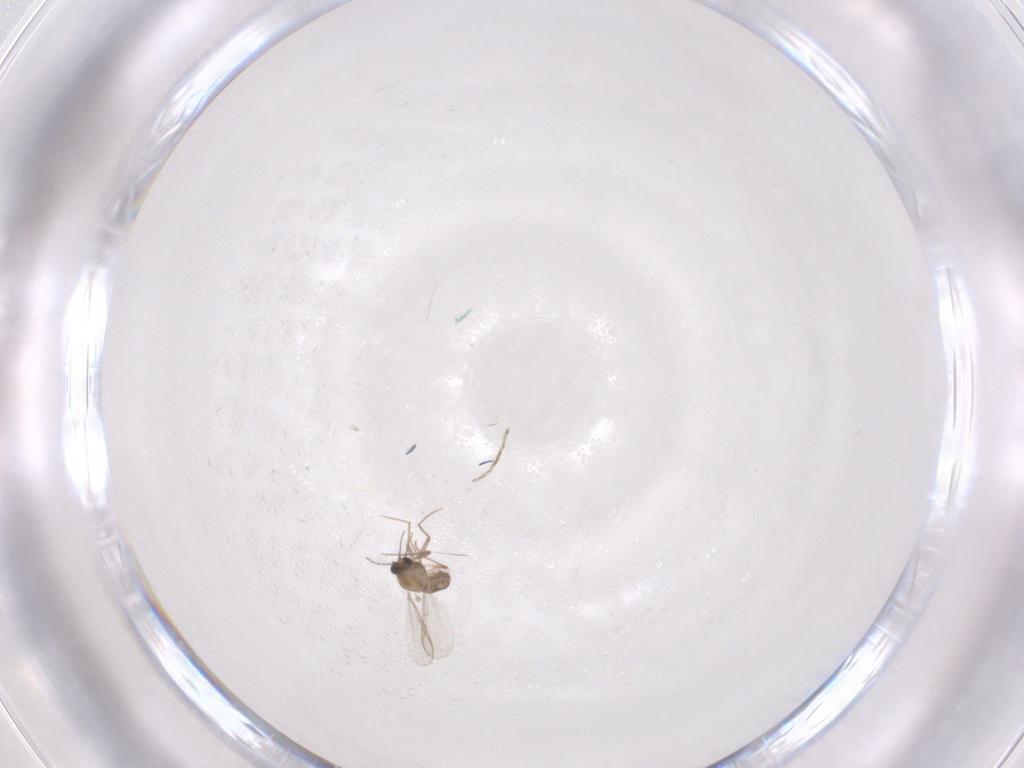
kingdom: Animalia
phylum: Arthropoda
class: Insecta
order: Diptera
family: Chironomidae
